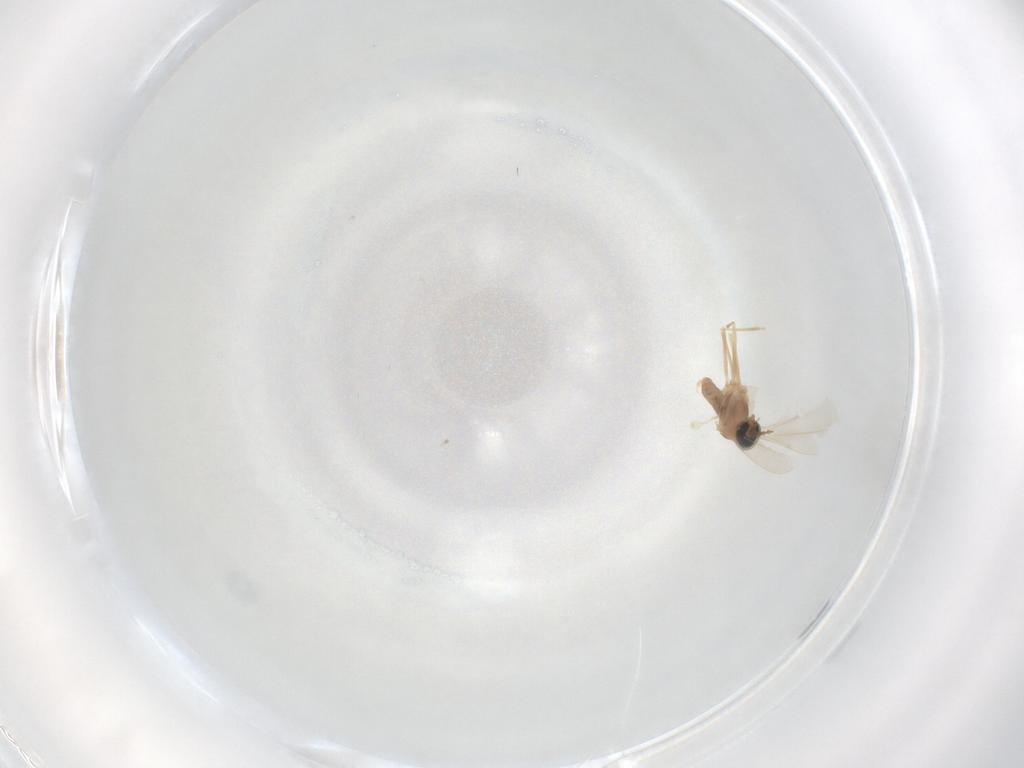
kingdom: Animalia
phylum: Arthropoda
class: Insecta
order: Diptera
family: Cecidomyiidae
